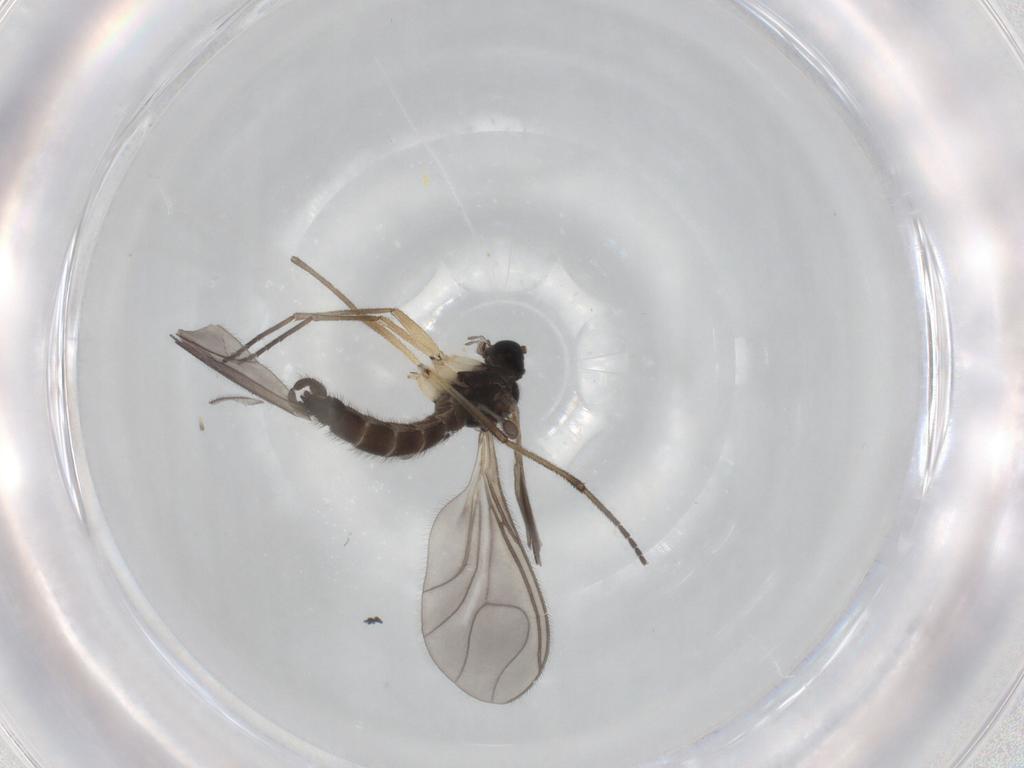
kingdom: Animalia
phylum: Arthropoda
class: Insecta
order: Diptera
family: Sciaridae
